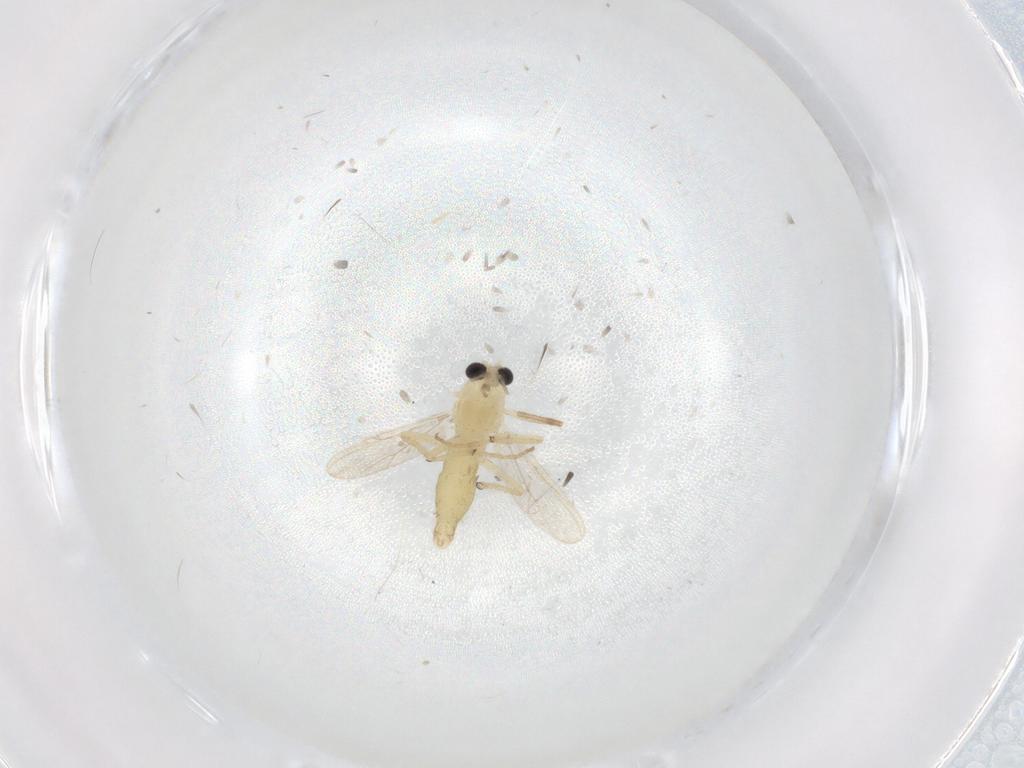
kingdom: Animalia
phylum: Arthropoda
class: Insecta
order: Diptera
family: Chironomidae
